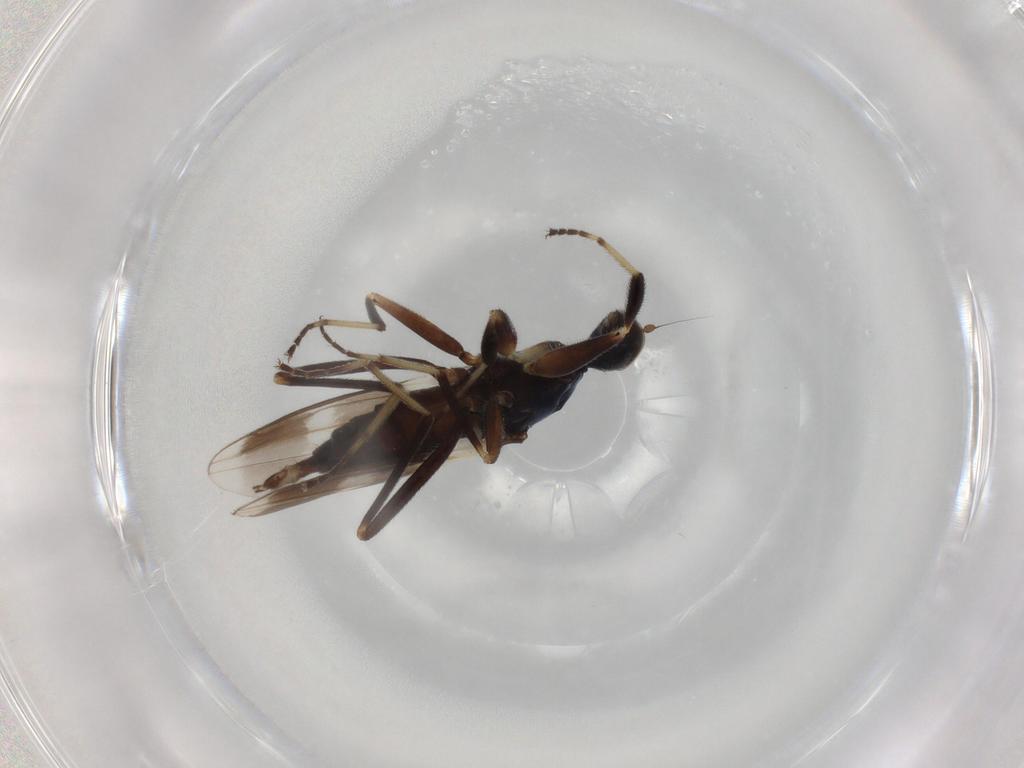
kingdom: Animalia
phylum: Arthropoda
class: Insecta
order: Diptera
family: Hybotidae
